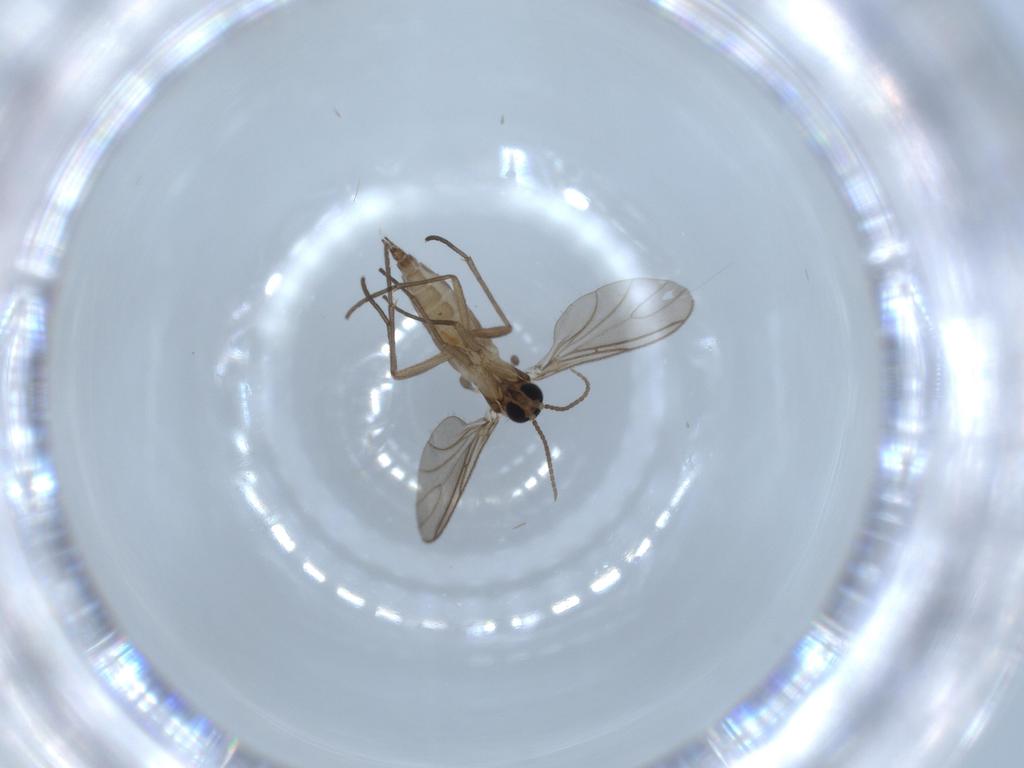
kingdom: Animalia
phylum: Arthropoda
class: Insecta
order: Diptera
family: Sciaridae
